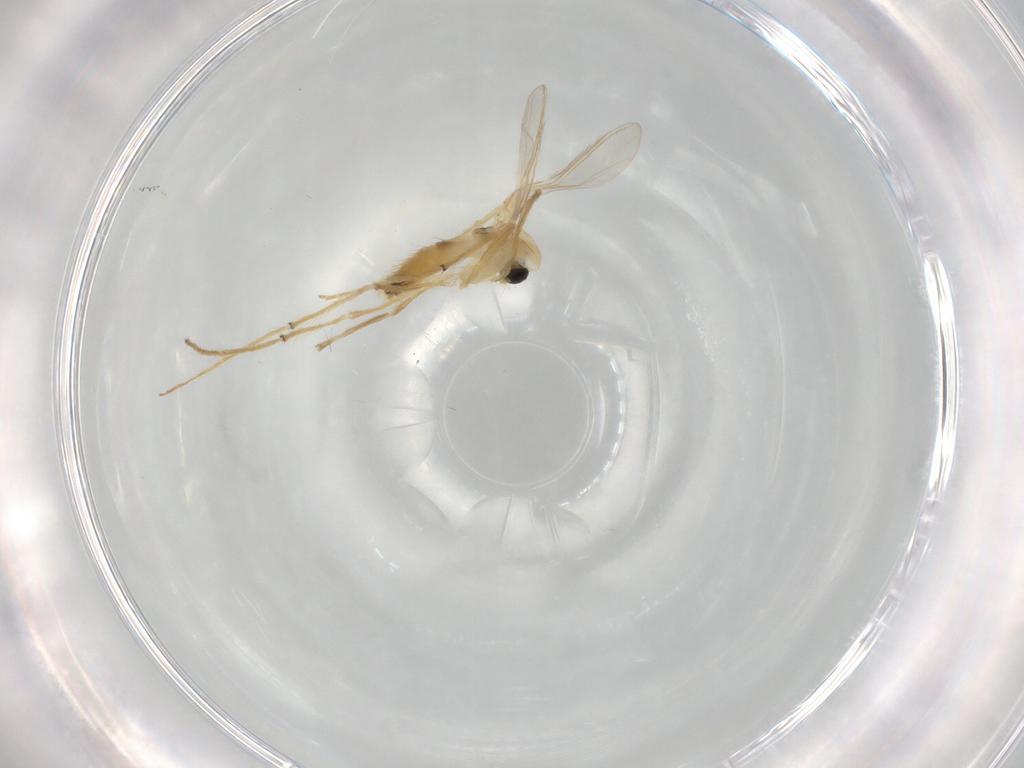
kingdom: Animalia
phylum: Arthropoda
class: Insecta
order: Diptera
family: Chironomidae
